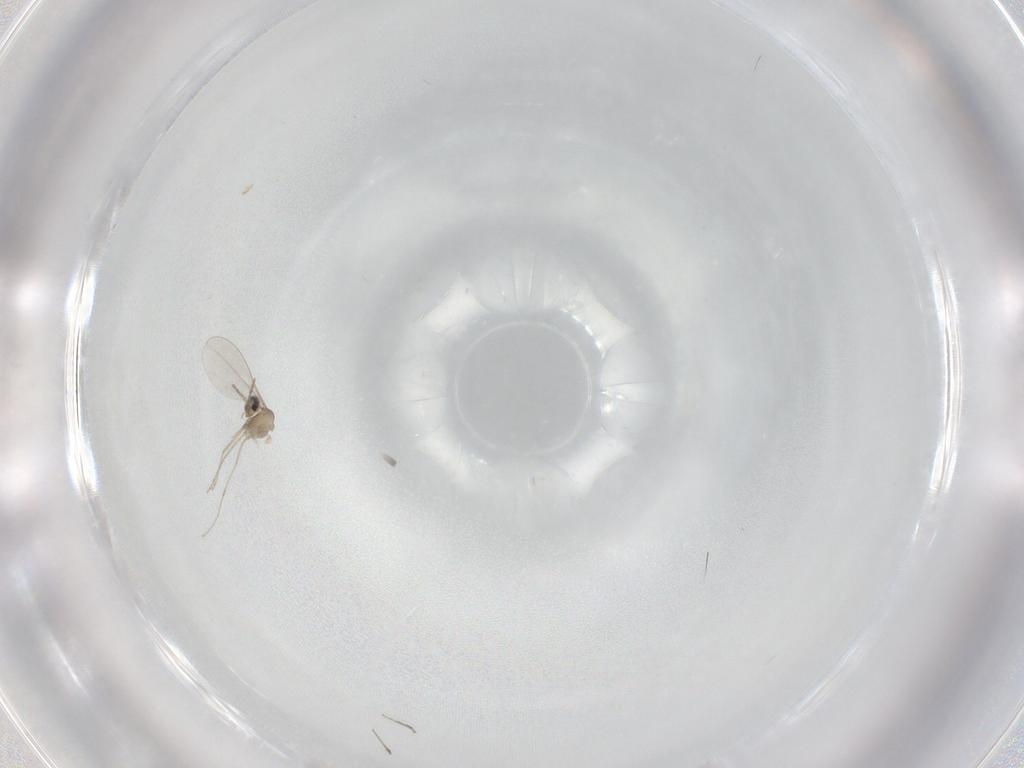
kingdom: Animalia
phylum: Arthropoda
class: Insecta
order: Diptera
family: Cecidomyiidae
